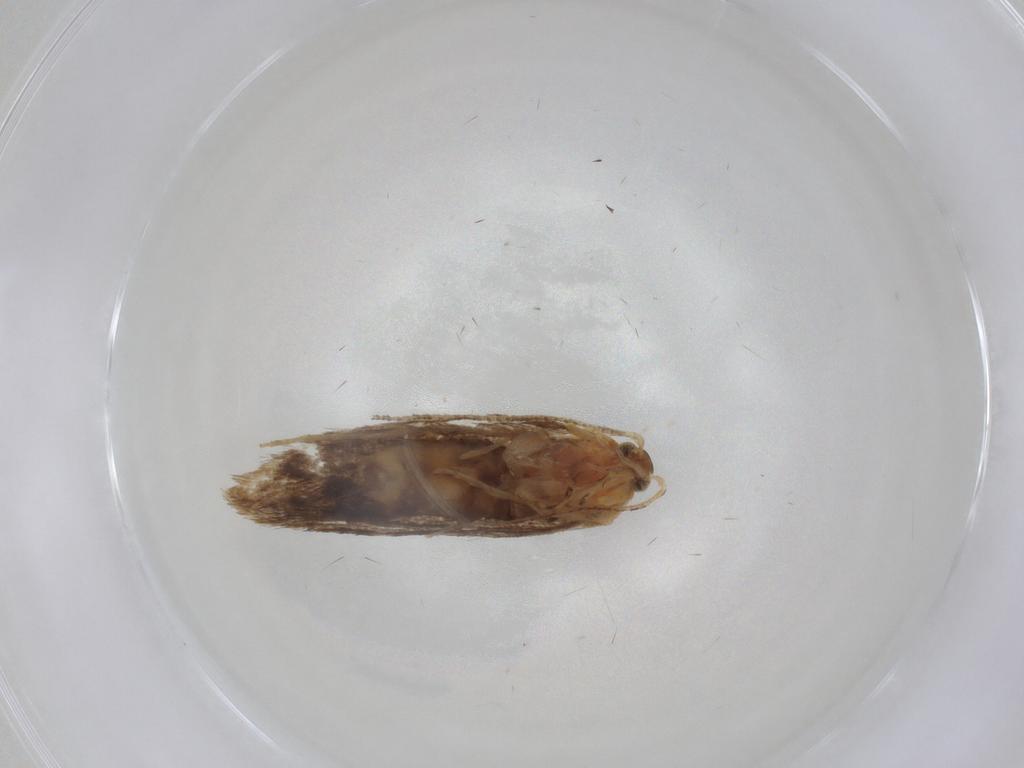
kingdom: Animalia
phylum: Arthropoda
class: Insecta
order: Lepidoptera
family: Dryadaulidae
